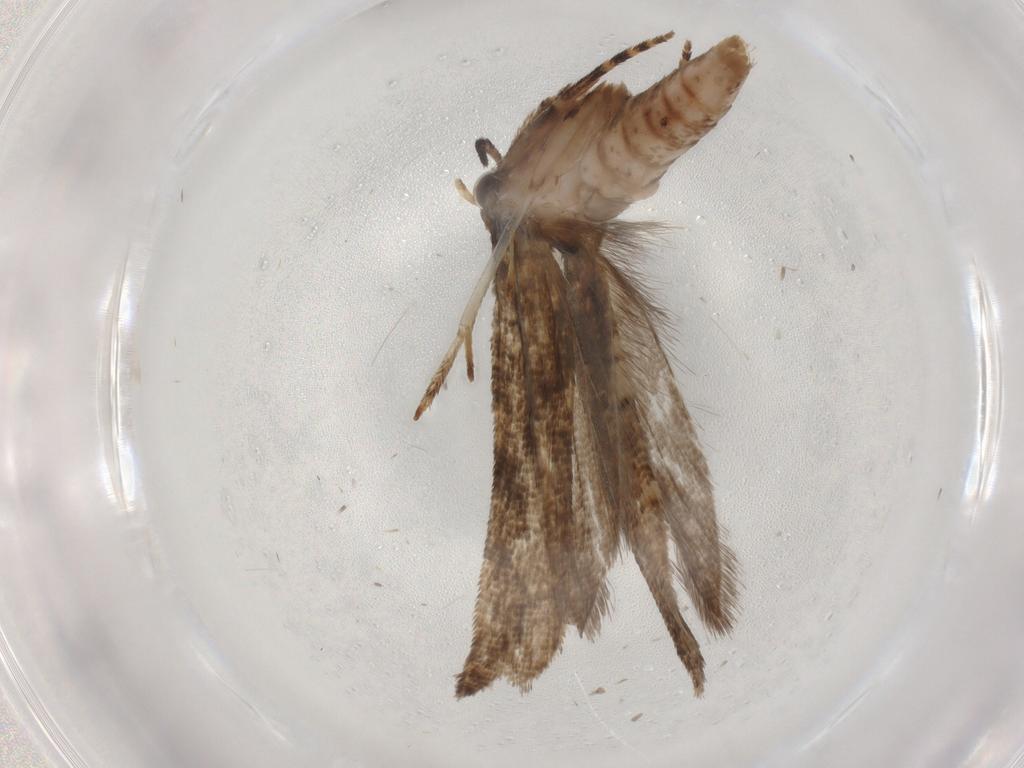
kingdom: Animalia
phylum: Arthropoda
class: Insecta
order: Lepidoptera
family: Glyphipterigidae
